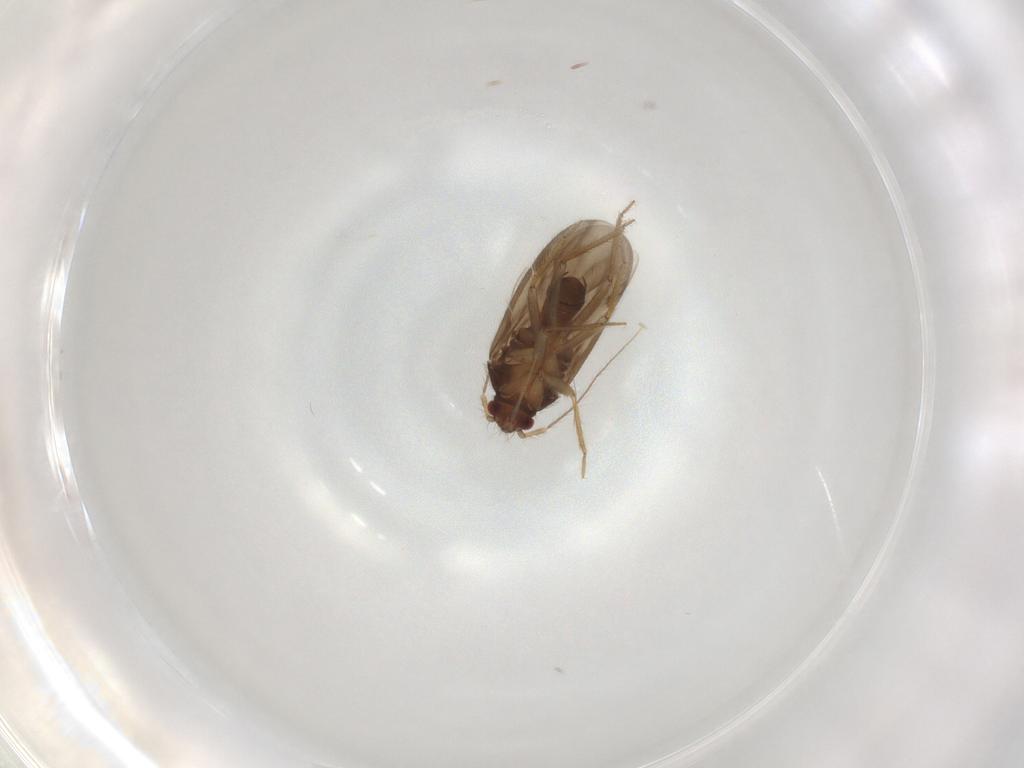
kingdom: Animalia
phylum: Arthropoda
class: Insecta
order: Hemiptera
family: Ceratocombidae
